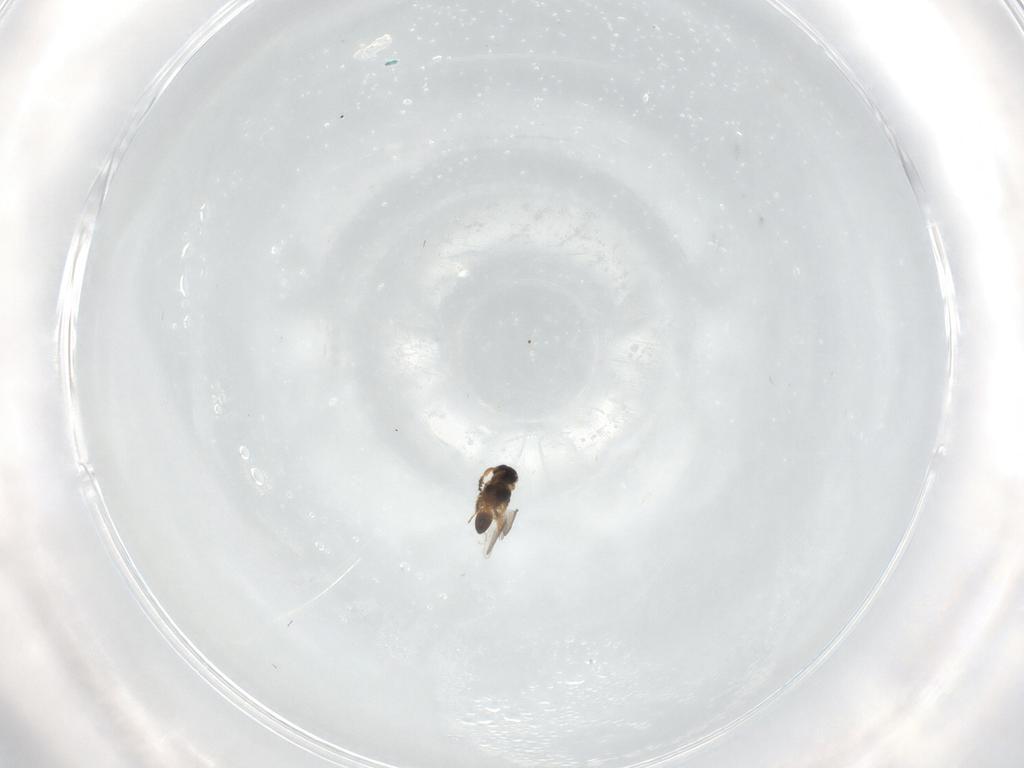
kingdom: Animalia
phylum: Arthropoda
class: Insecta
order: Hymenoptera
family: Platygastridae
